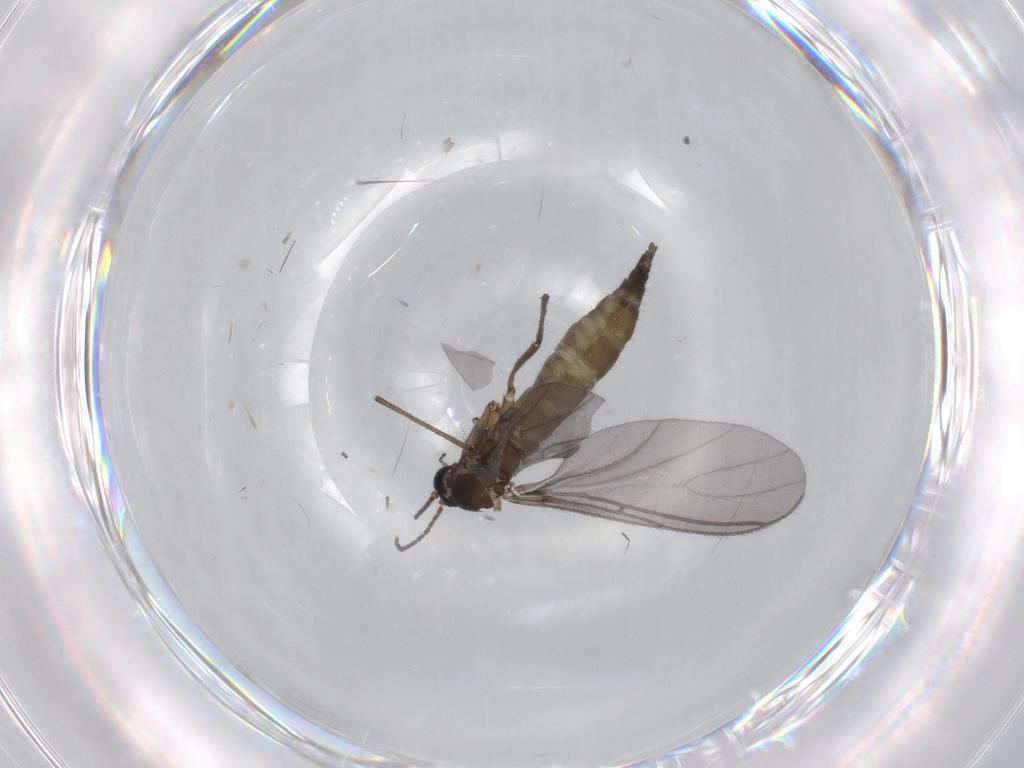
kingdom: Animalia
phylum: Arthropoda
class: Insecta
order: Diptera
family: Sciaridae
